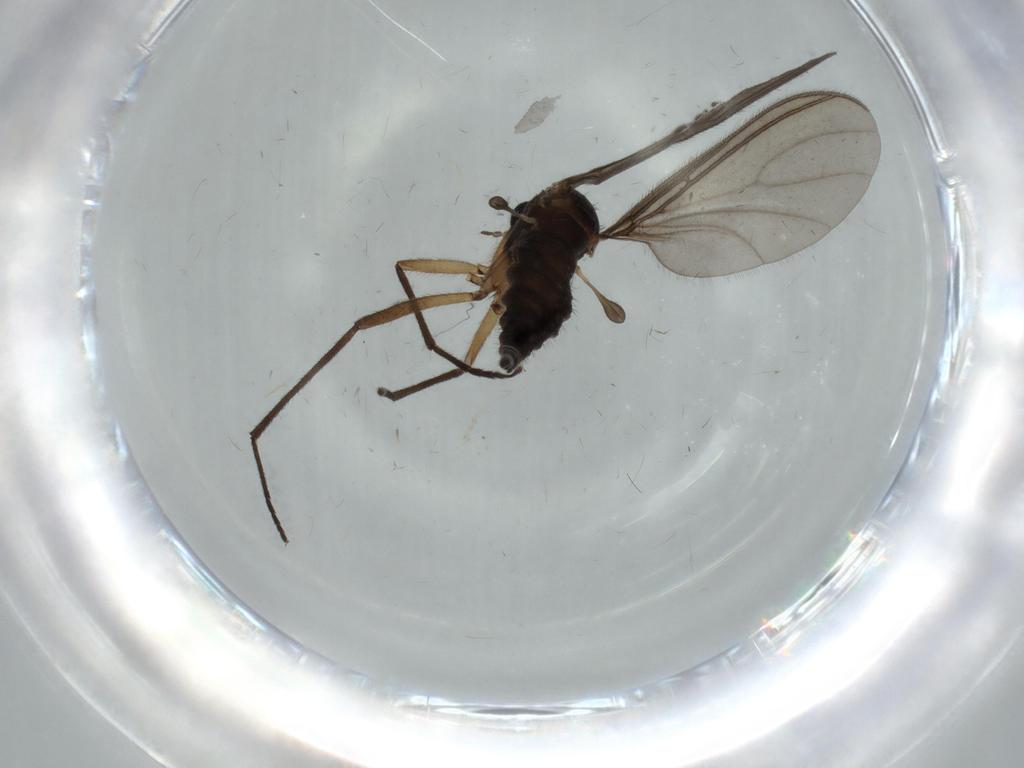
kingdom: Animalia
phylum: Arthropoda
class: Insecta
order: Diptera
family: Sciaridae
